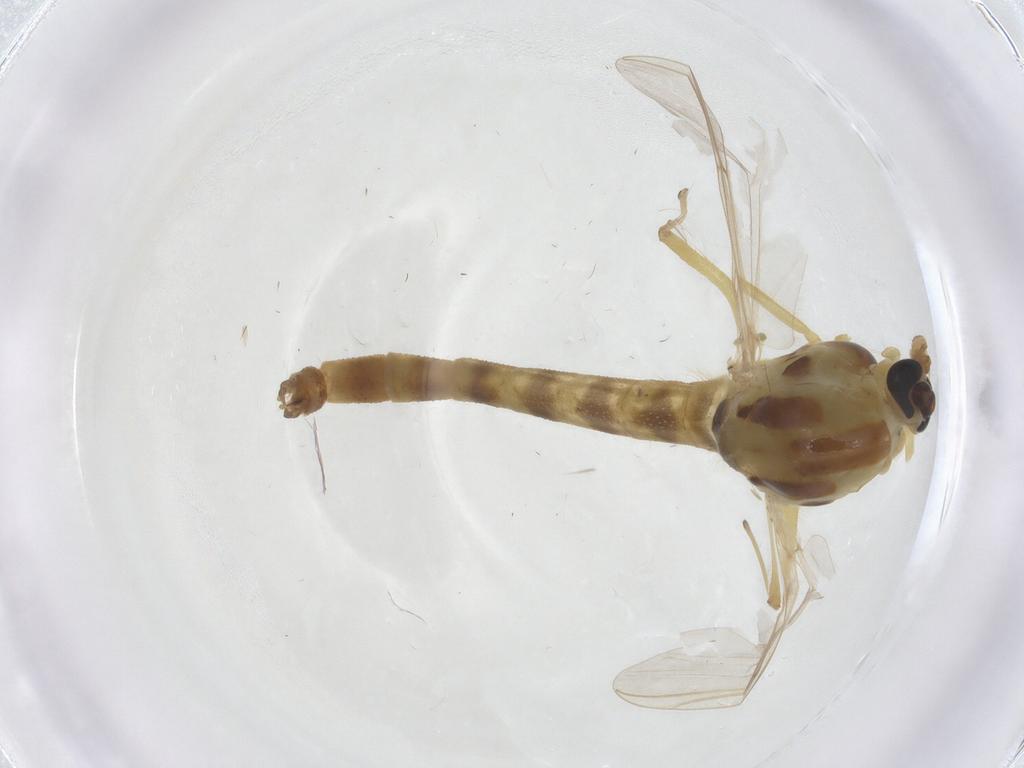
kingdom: Animalia
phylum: Arthropoda
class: Insecta
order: Diptera
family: Chironomidae
